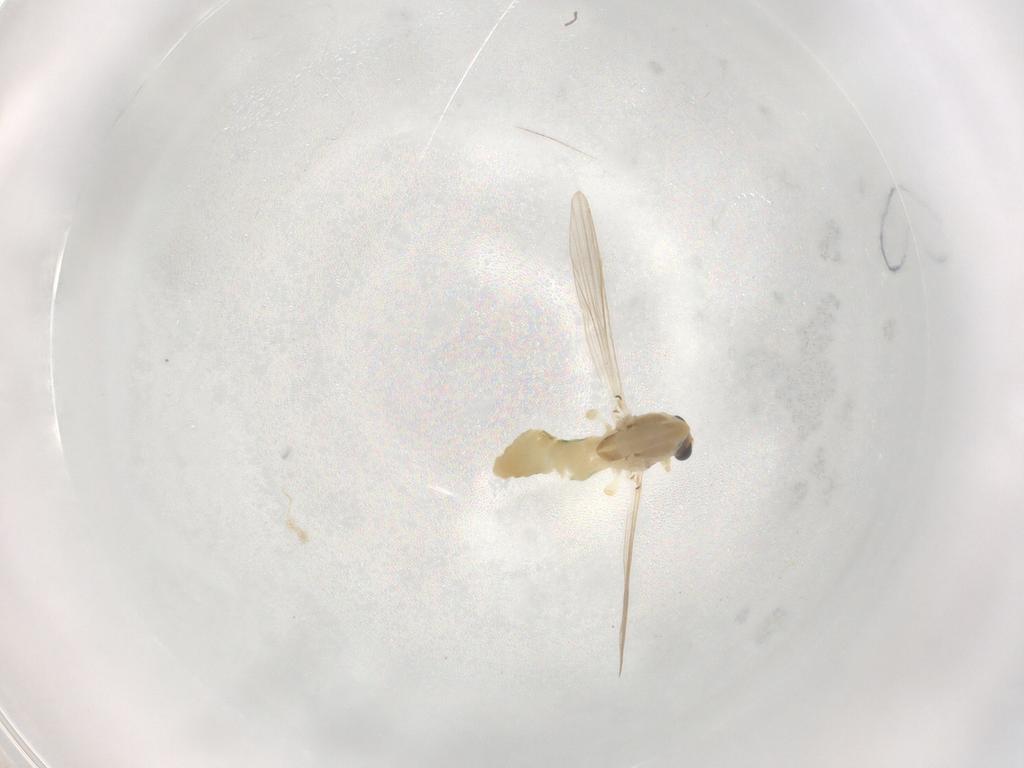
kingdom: Animalia
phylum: Arthropoda
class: Insecta
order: Diptera
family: Chironomidae
